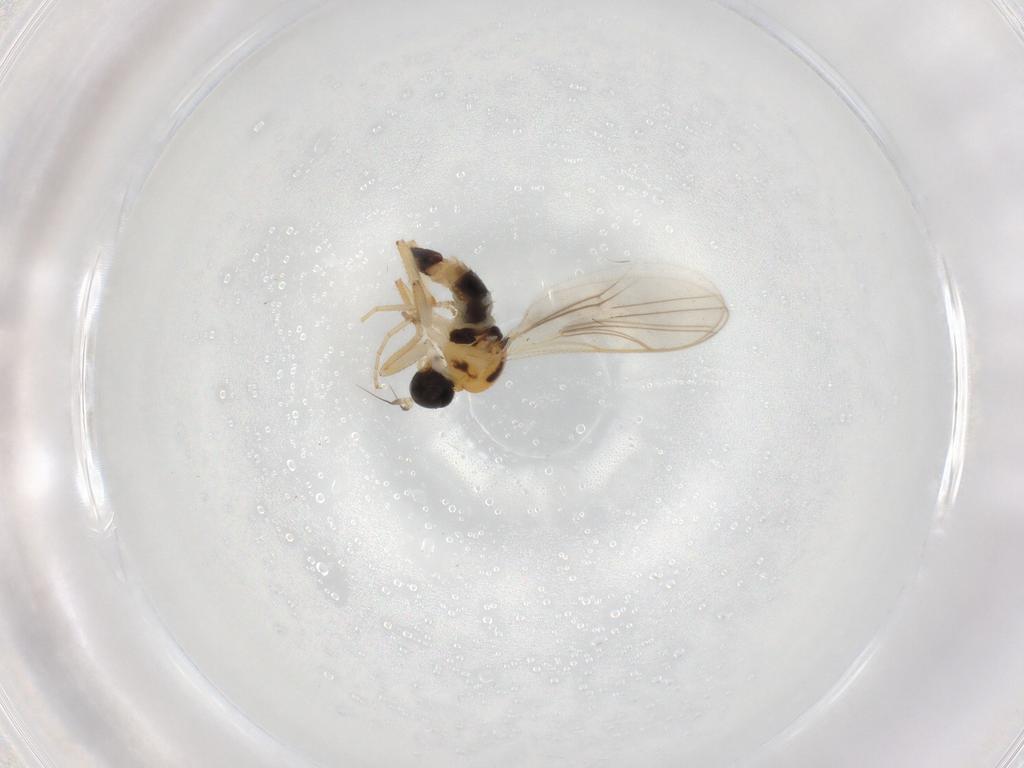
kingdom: Animalia
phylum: Arthropoda
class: Insecta
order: Diptera
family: Hybotidae
